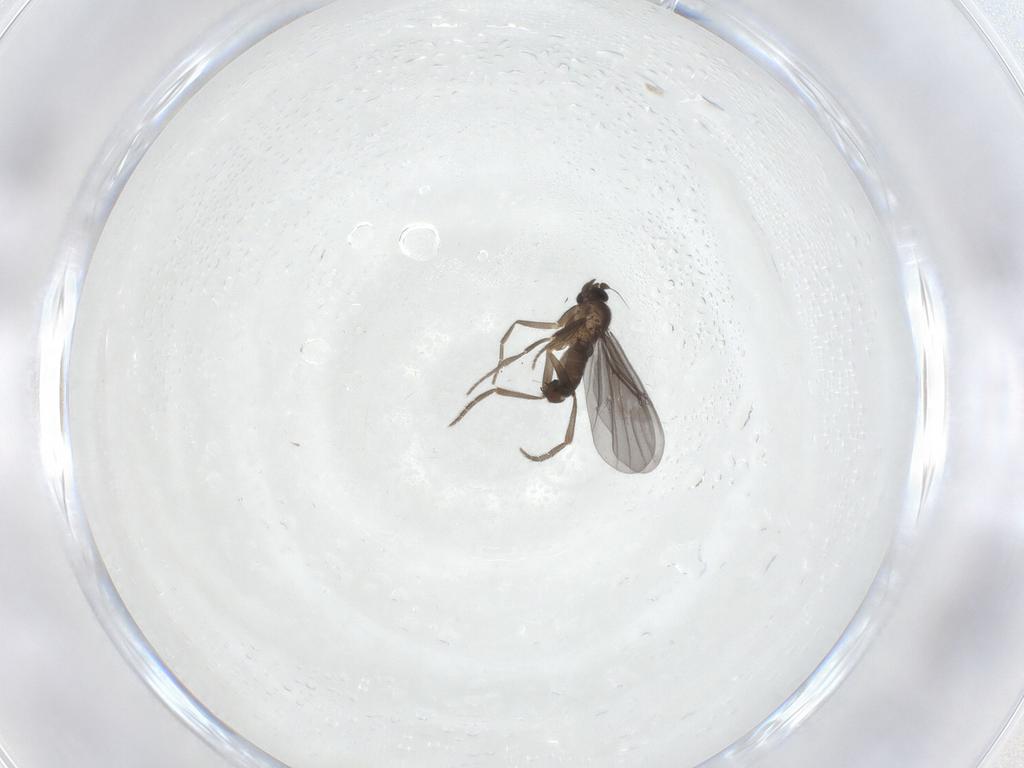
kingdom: Animalia
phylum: Arthropoda
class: Insecta
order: Diptera
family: Phoridae
